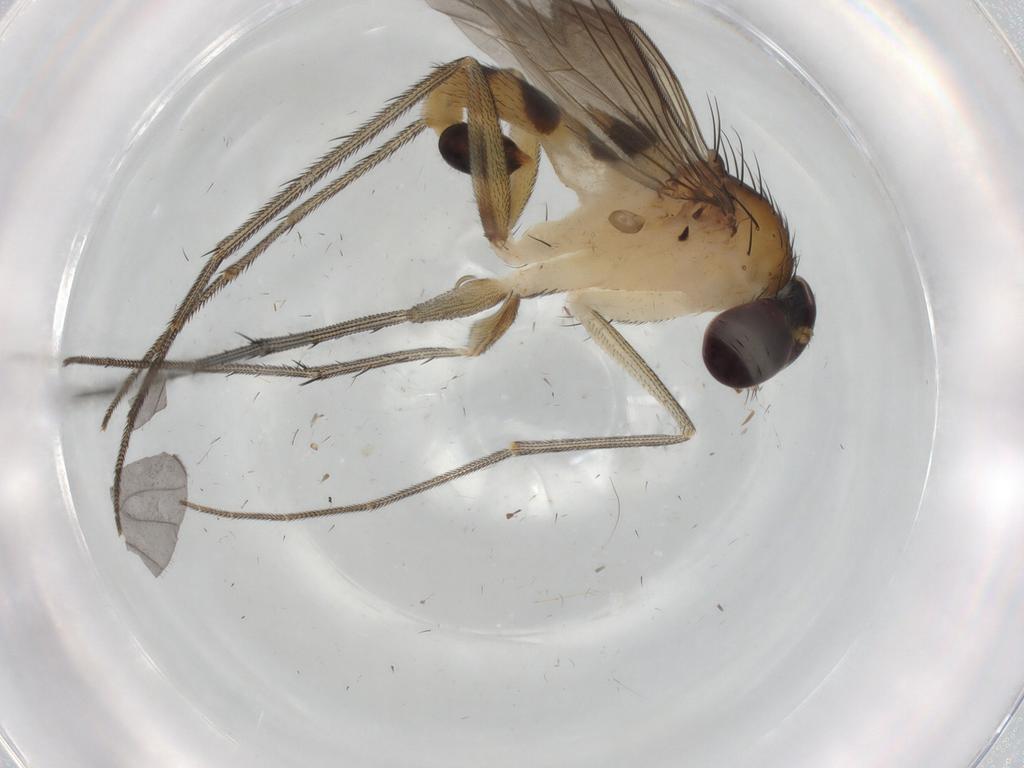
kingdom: Animalia
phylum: Arthropoda
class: Insecta
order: Diptera
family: Dolichopodidae
